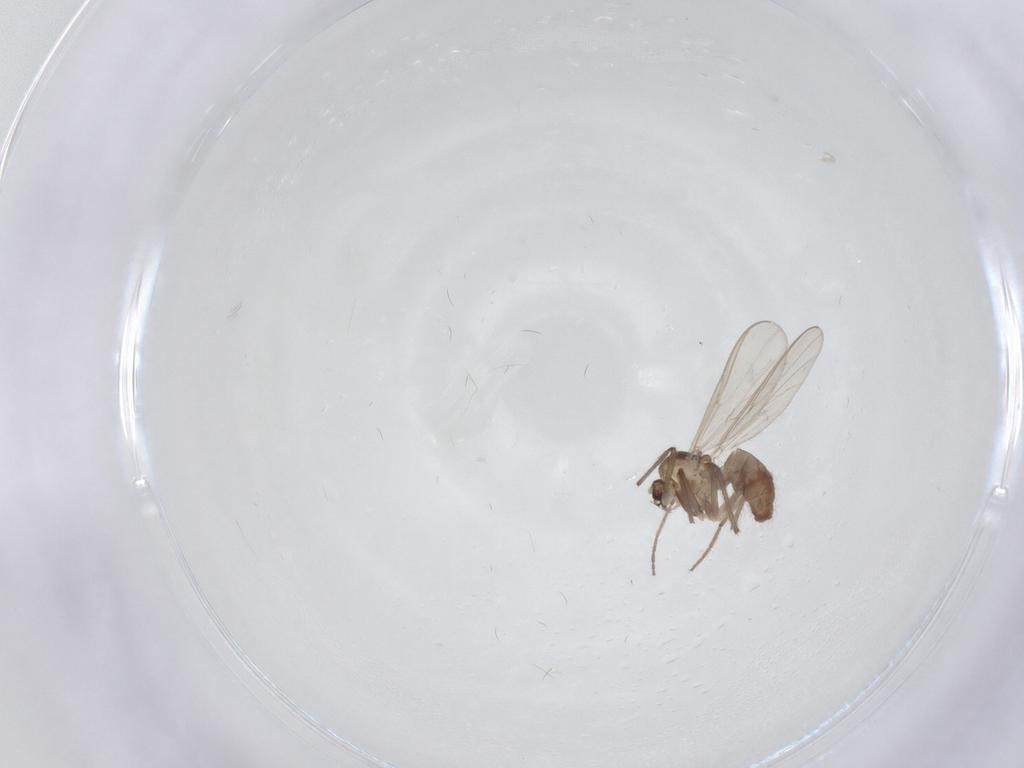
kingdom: Animalia
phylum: Arthropoda
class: Insecta
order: Diptera
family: Chironomidae
